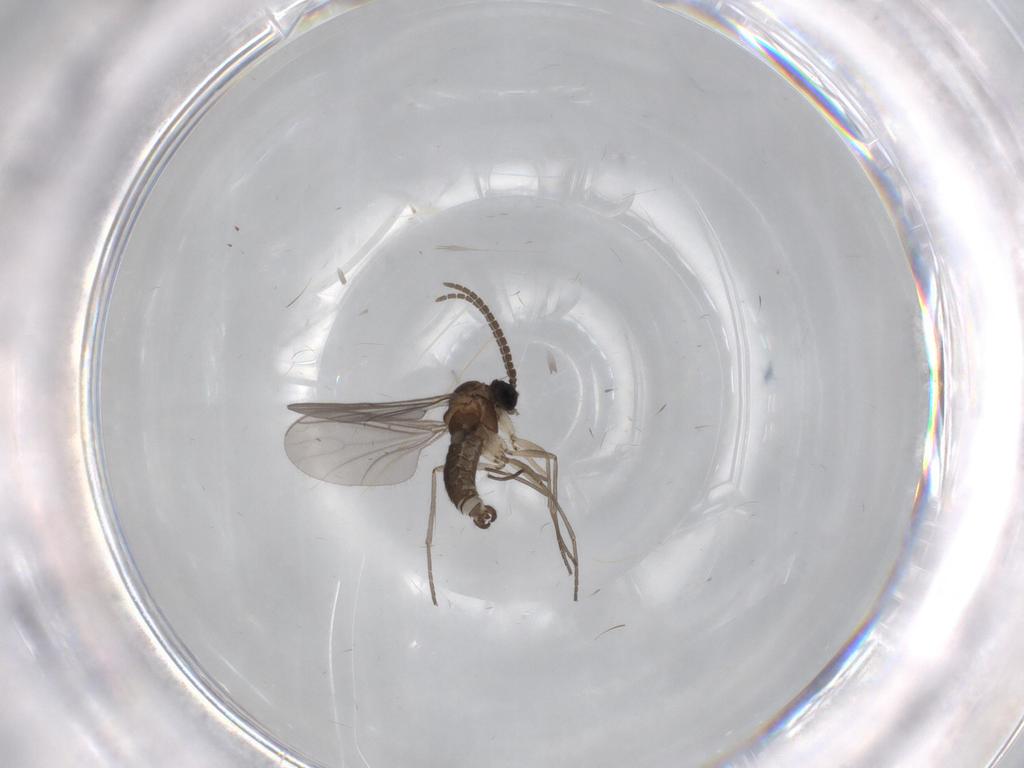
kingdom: Animalia
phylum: Arthropoda
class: Insecta
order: Diptera
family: Sciaridae
